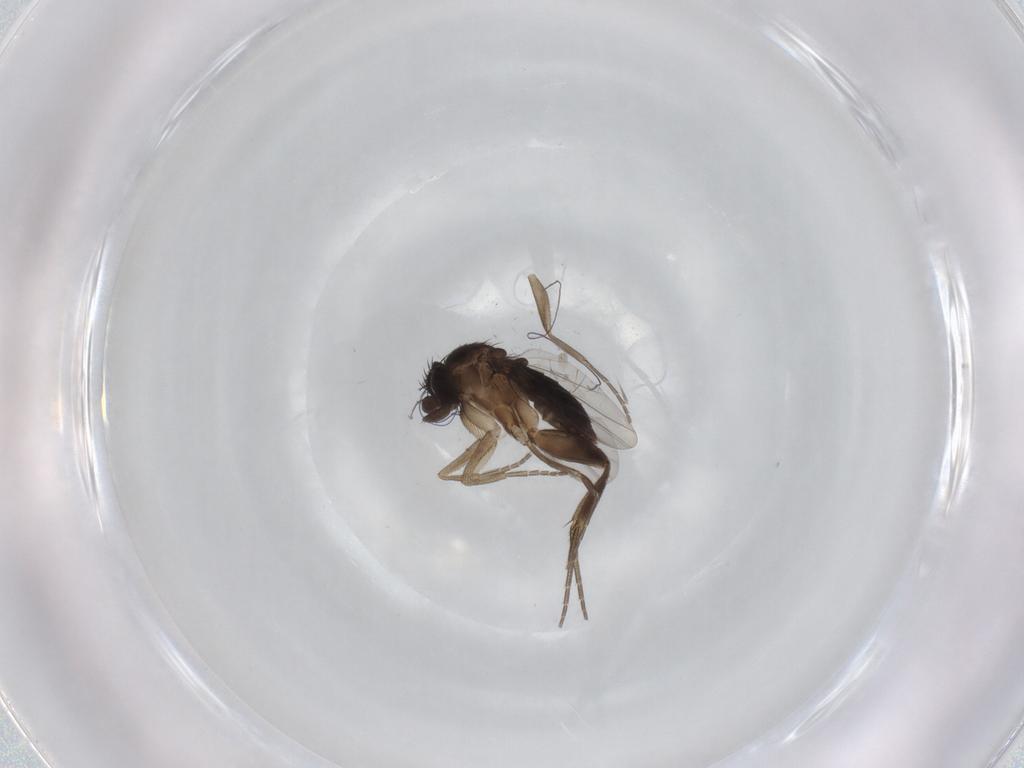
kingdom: Animalia
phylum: Arthropoda
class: Insecta
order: Diptera
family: Phoridae
